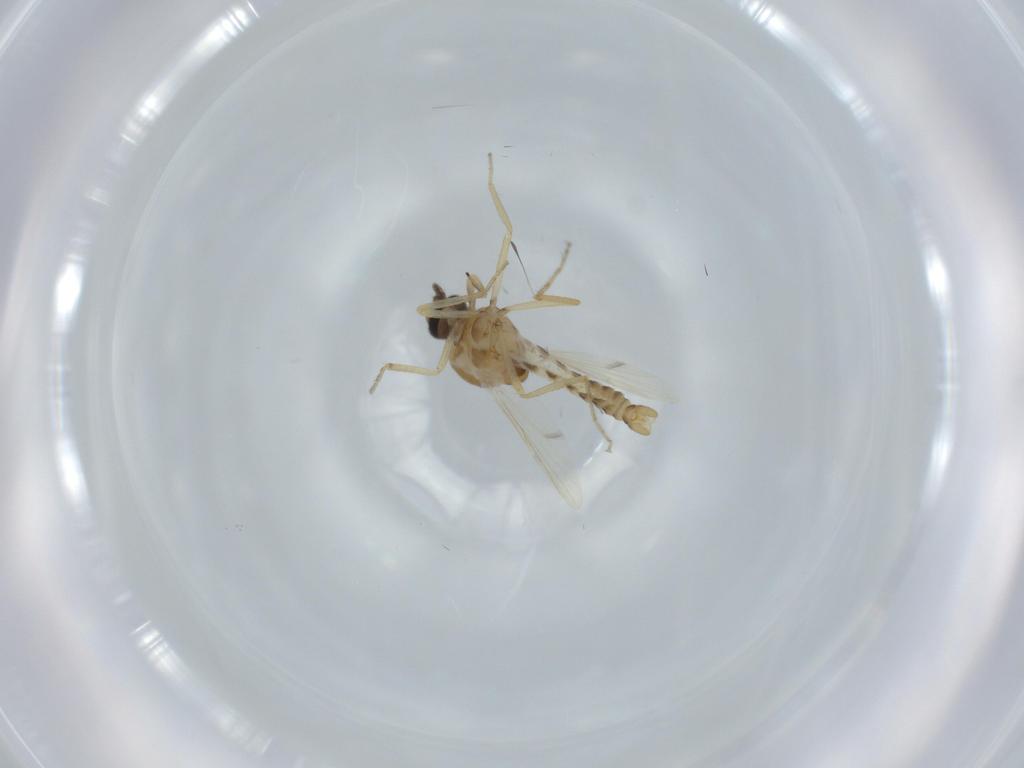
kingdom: Animalia
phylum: Arthropoda
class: Insecta
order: Diptera
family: Ceratopogonidae
